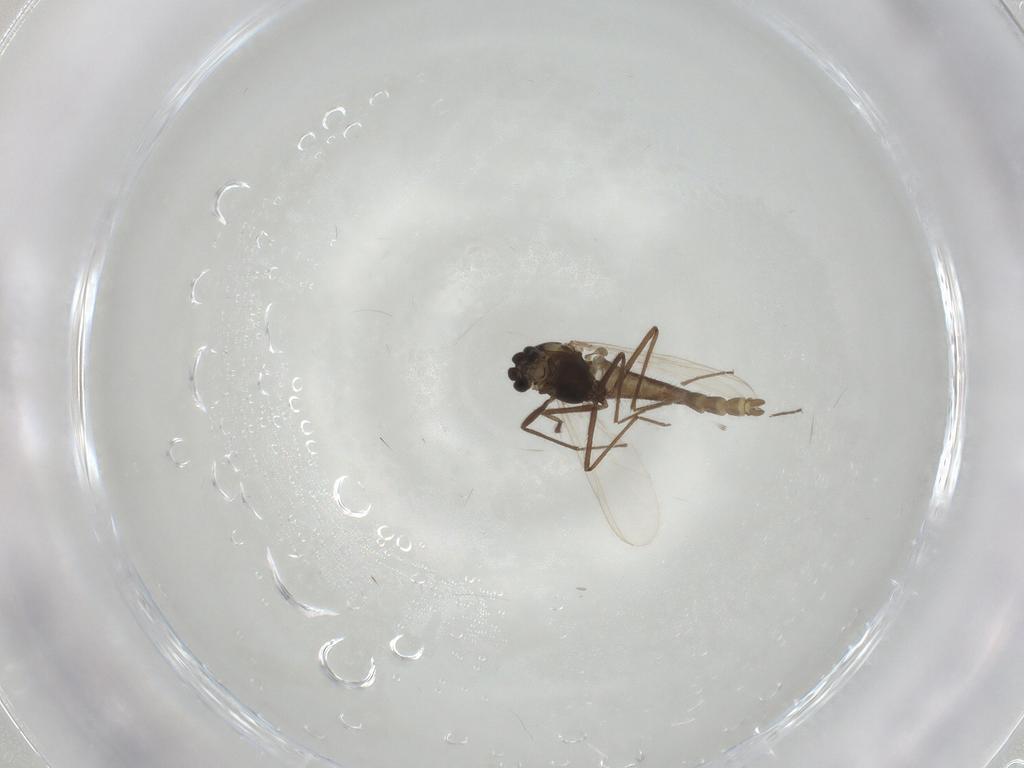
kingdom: Animalia
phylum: Arthropoda
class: Insecta
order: Diptera
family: Chironomidae
